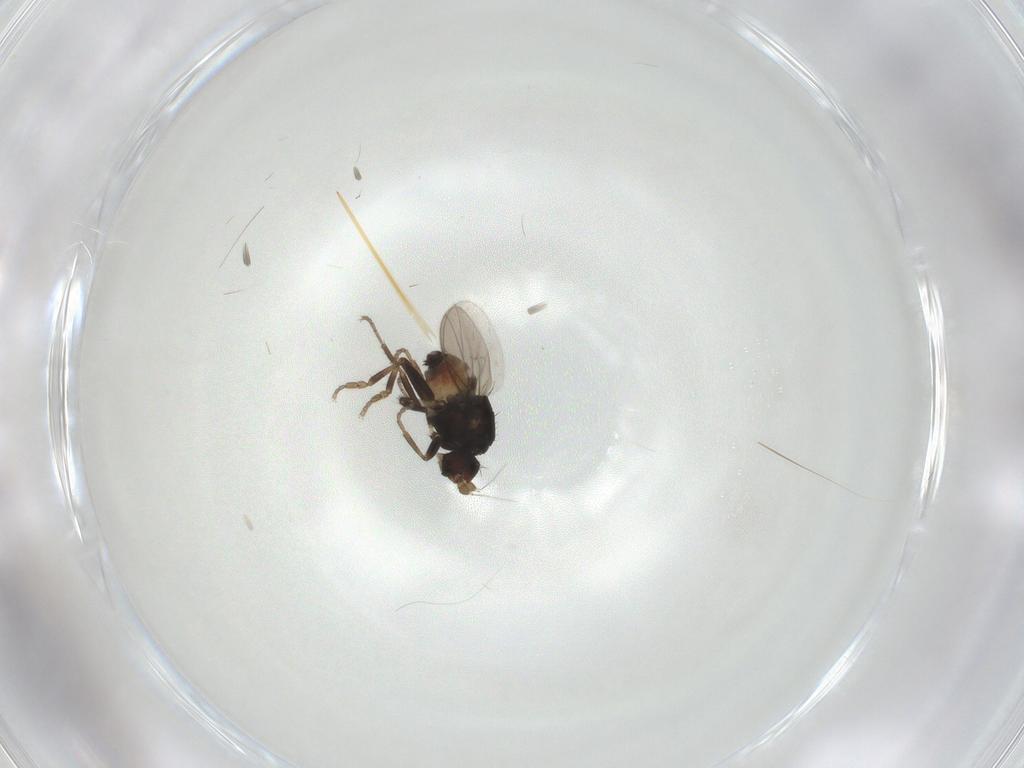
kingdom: Animalia
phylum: Arthropoda
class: Insecta
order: Diptera
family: Sphaeroceridae
